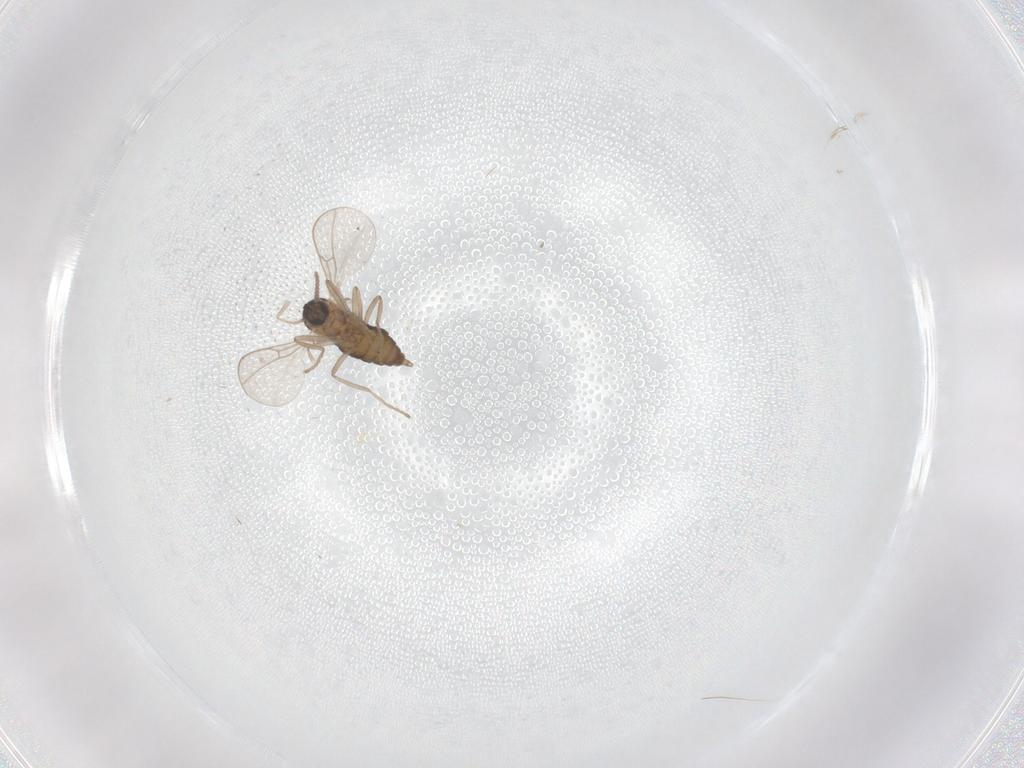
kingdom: Animalia
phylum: Arthropoda
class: Insecta
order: Diptera
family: Cecidomyiidae
